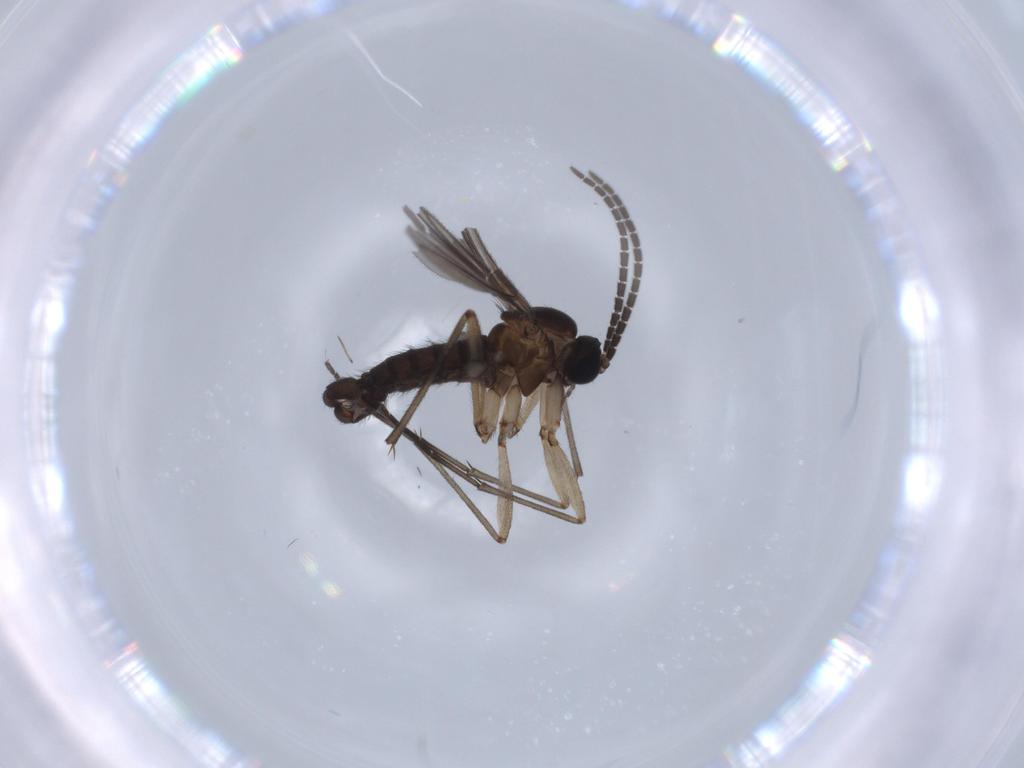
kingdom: Animalia
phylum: Arthropoda
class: Insecta
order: Diptera
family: Sciaridae
